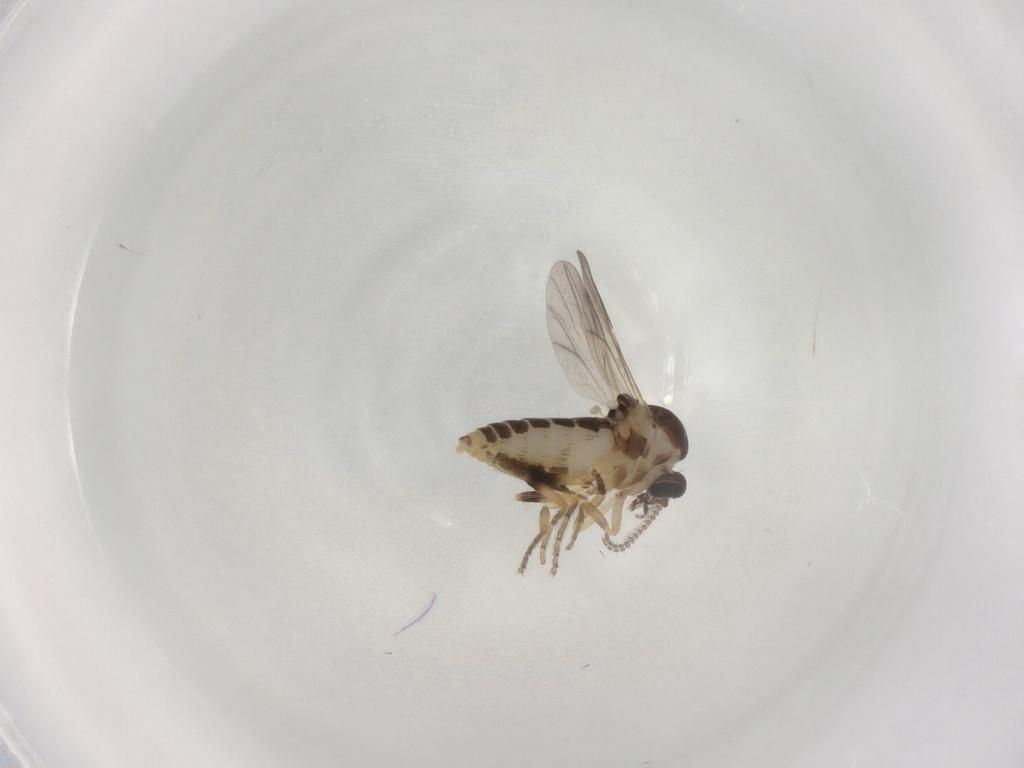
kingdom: Animalia
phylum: Arthropoda
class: Insecta
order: Diptera
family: Ceratopogonidae
